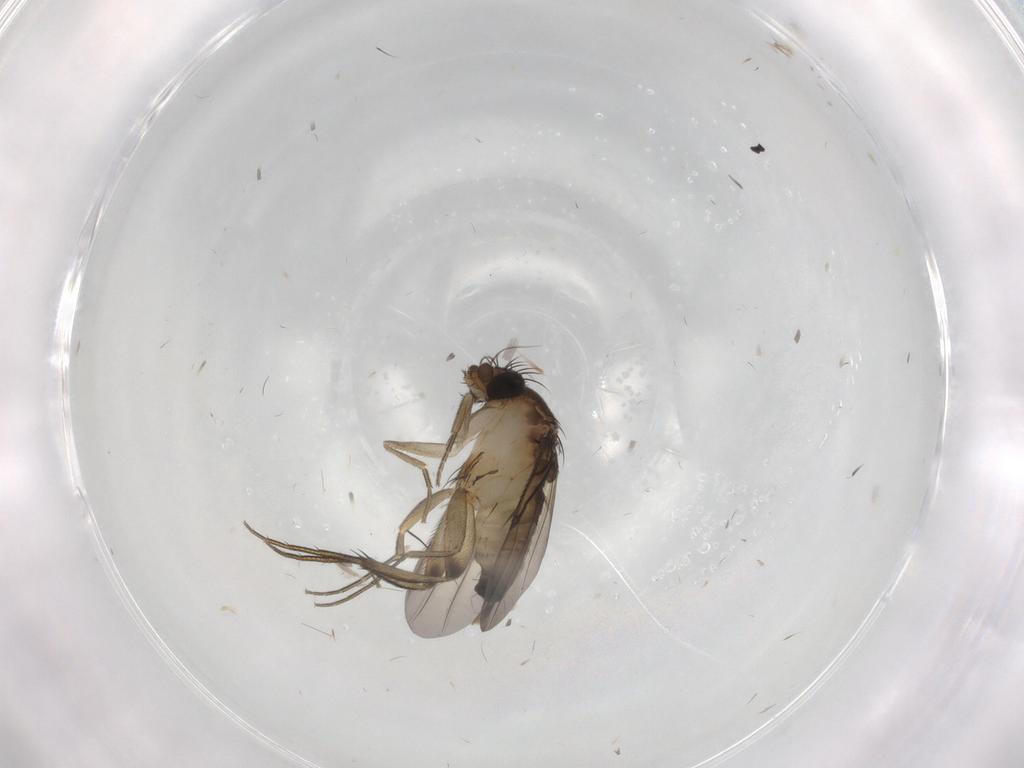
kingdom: Animalia
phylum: Arthropoda
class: Insecta
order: Diptera
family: Phoridae
